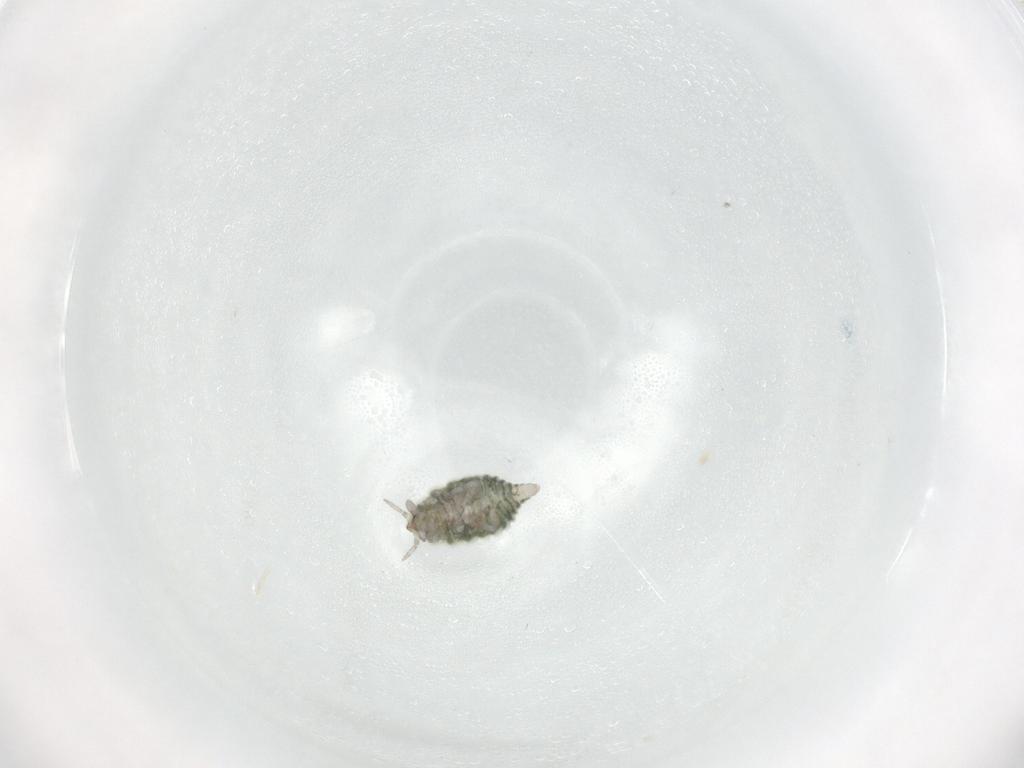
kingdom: Animalia
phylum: Arthropoda
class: Insecta
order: Neuroptera
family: Coniopterygidae
